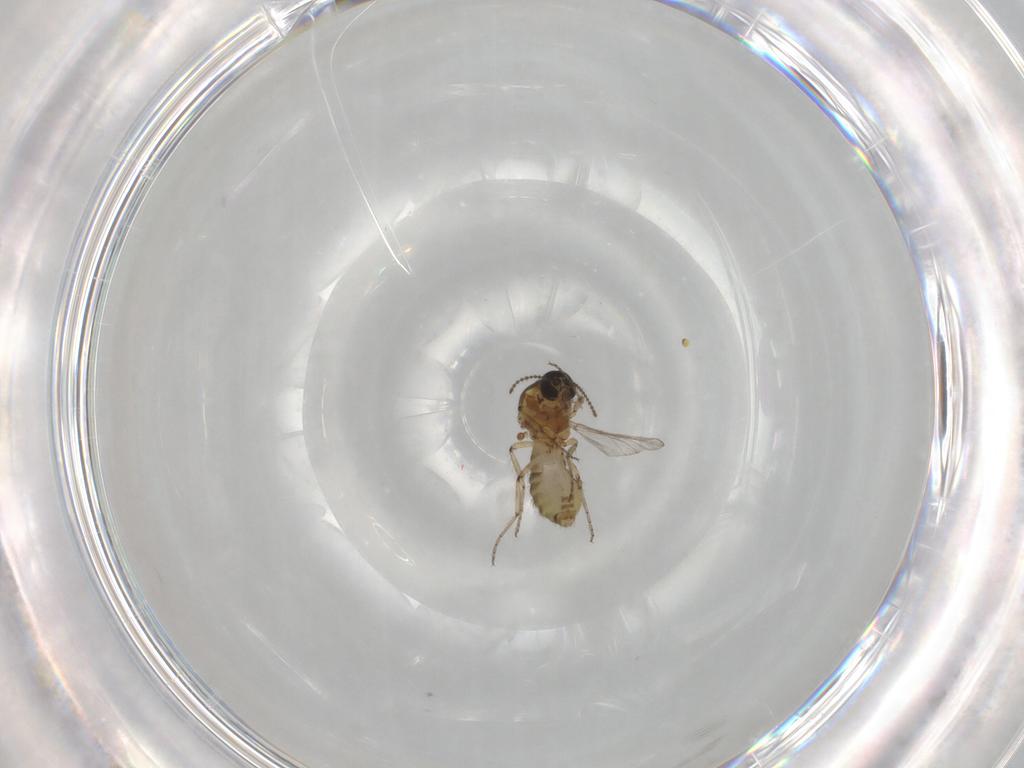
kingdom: Animalia
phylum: Arthropoda
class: Insecta
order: Diptera
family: Ceratopogonidae
